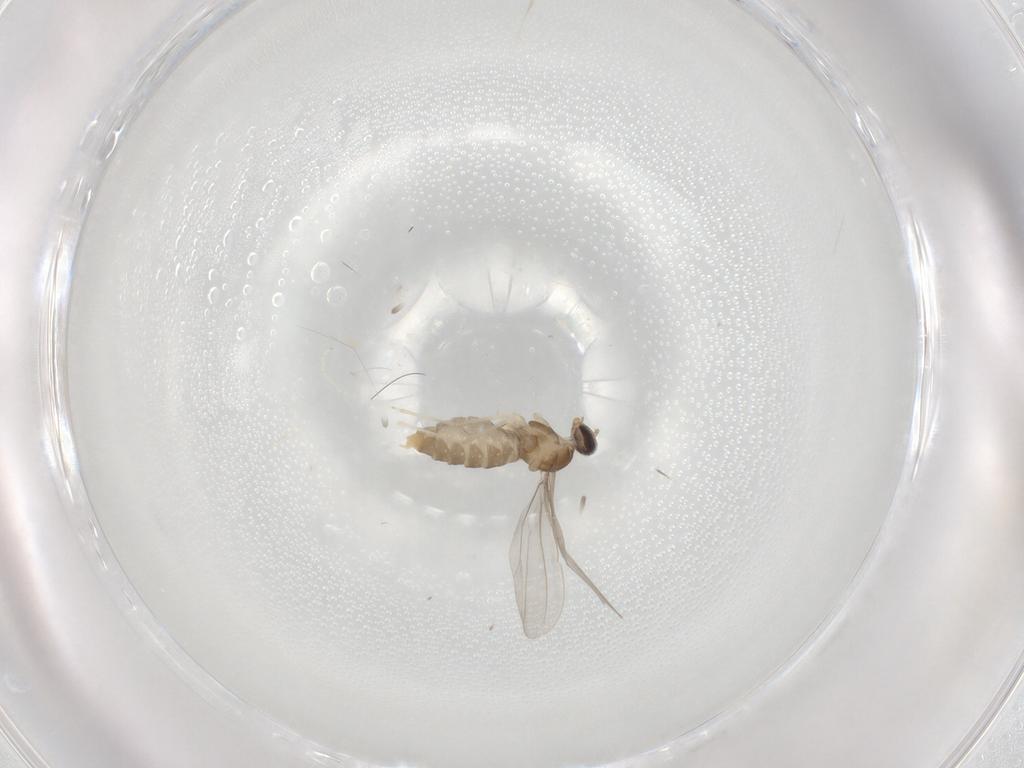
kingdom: Animalia
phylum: Arthropoda
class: Insecta
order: Diptera
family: Cecidomyiidae
